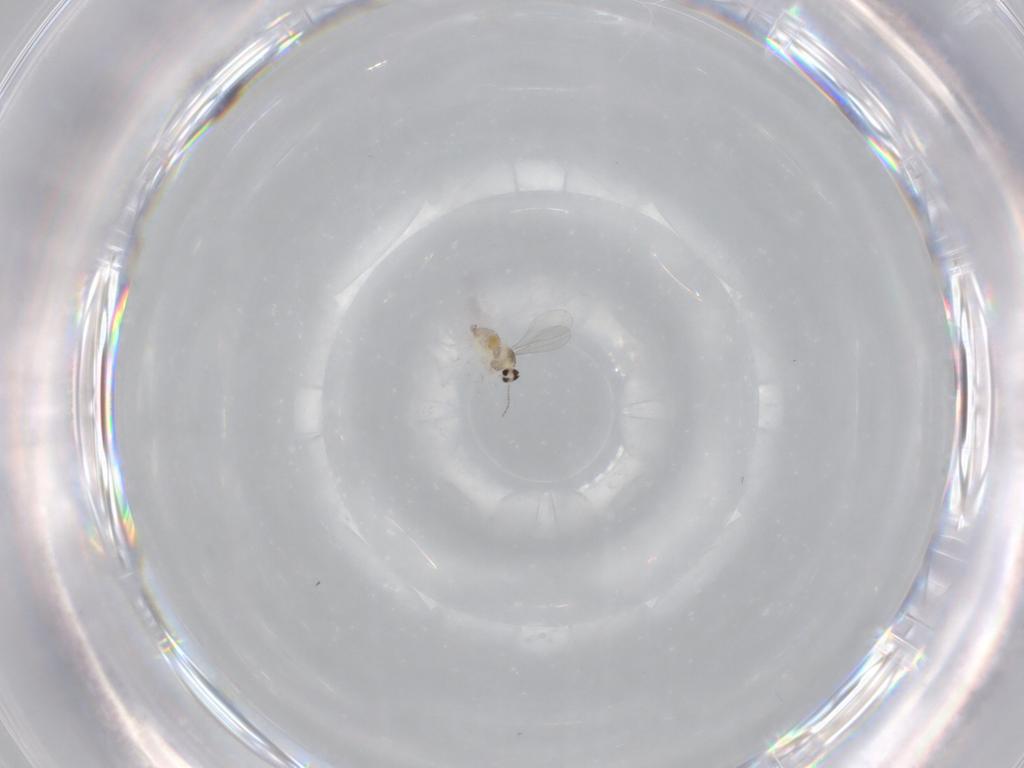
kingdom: Animalia
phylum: Arthropoda
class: Insecta
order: Diptera
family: Cecidomyiidae
